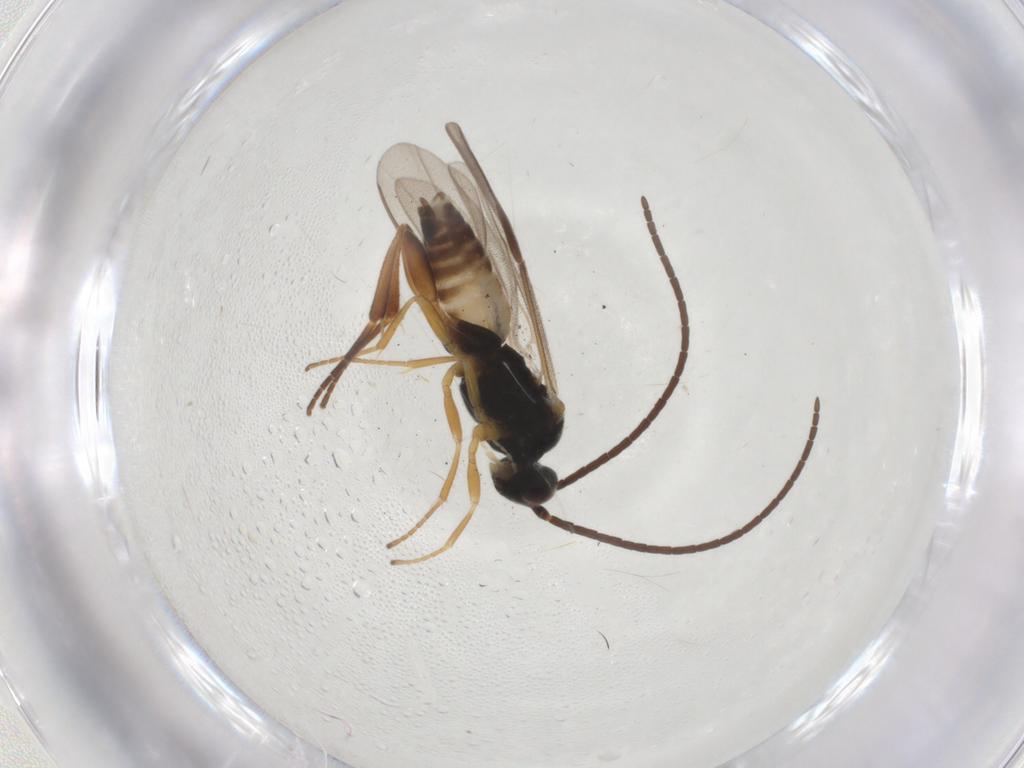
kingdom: Animalia
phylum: Arthropoda
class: Insecta
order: Hymenoptera
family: Braconidae
